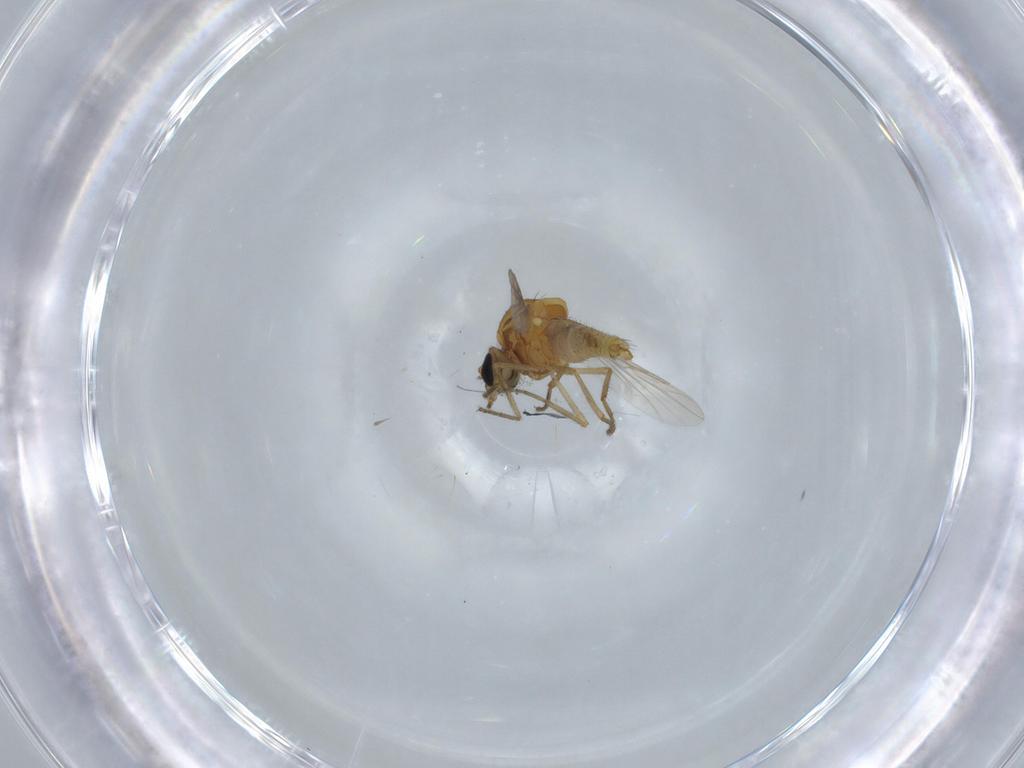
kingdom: Animalia
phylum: Arthropoda
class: Insecta
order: Diptera
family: Ceratopogonidae
